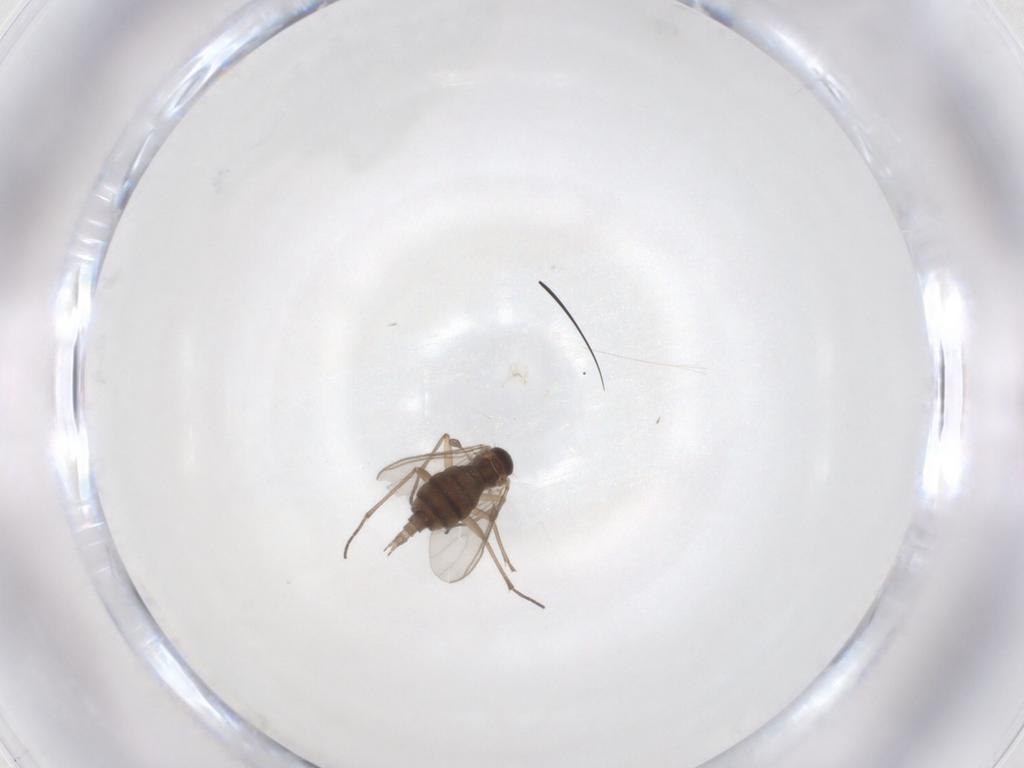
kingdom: Animalia
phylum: Arthropoda
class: Insecta
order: Diptera
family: Sciaridae
